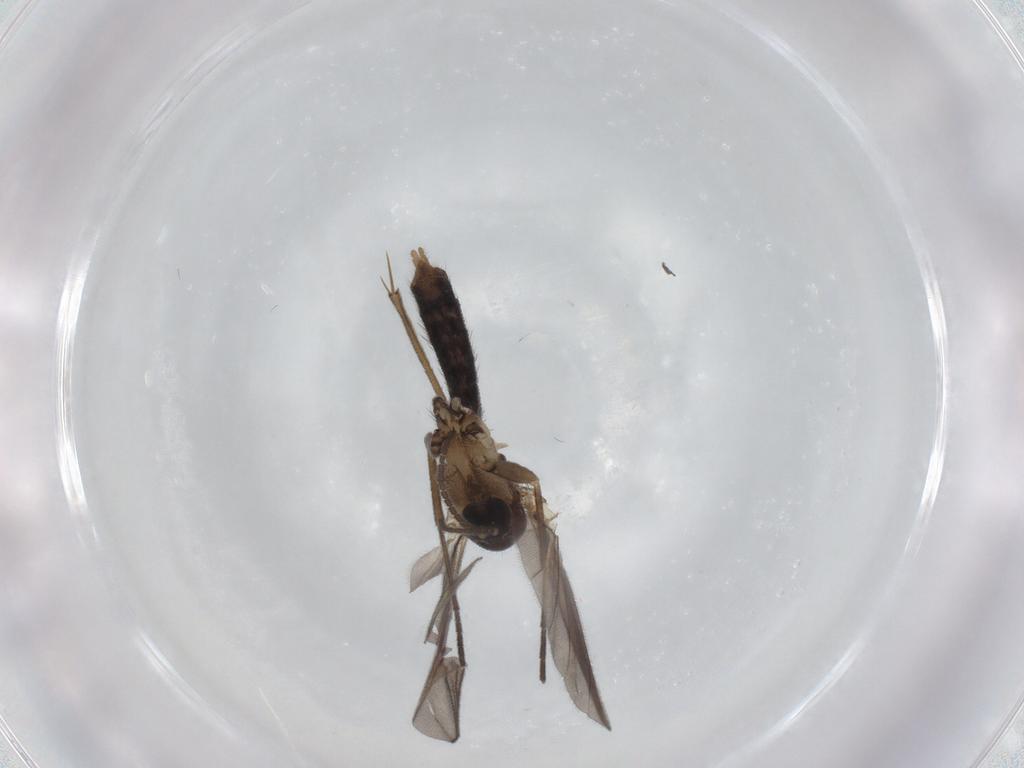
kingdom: Animalia
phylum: Arthropoda
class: Insecta
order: Diptera
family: Mycetophilidae
